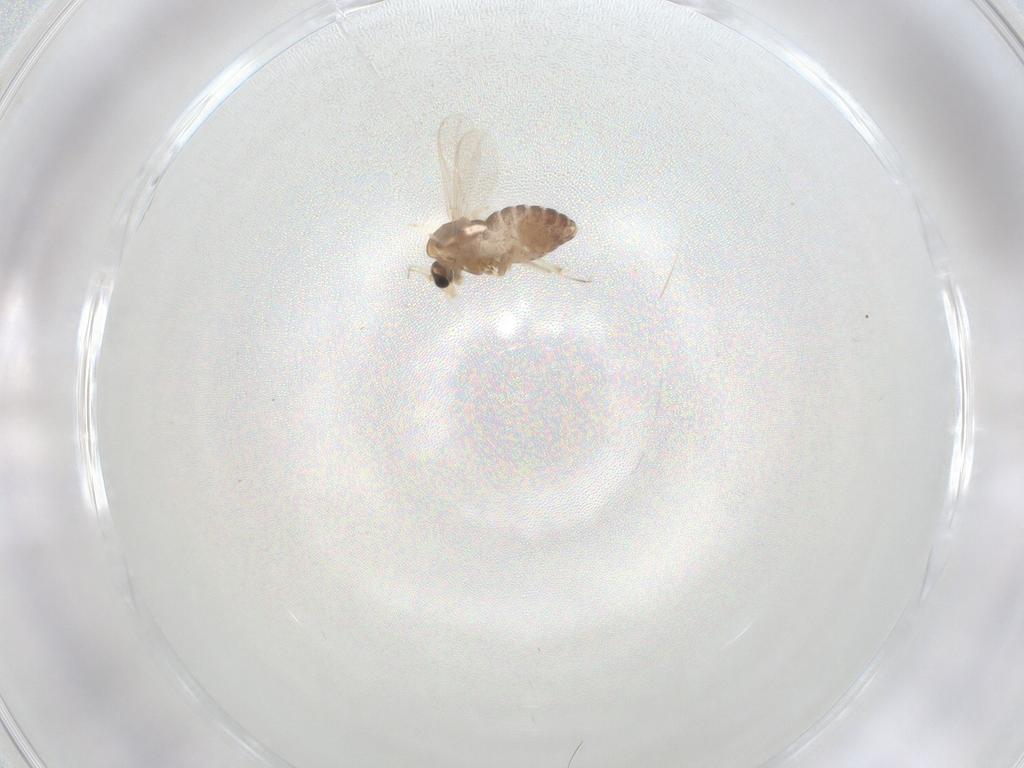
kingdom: Animalia
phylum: Arthropoda
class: Insecta
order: Diptera
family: Chironomidae
